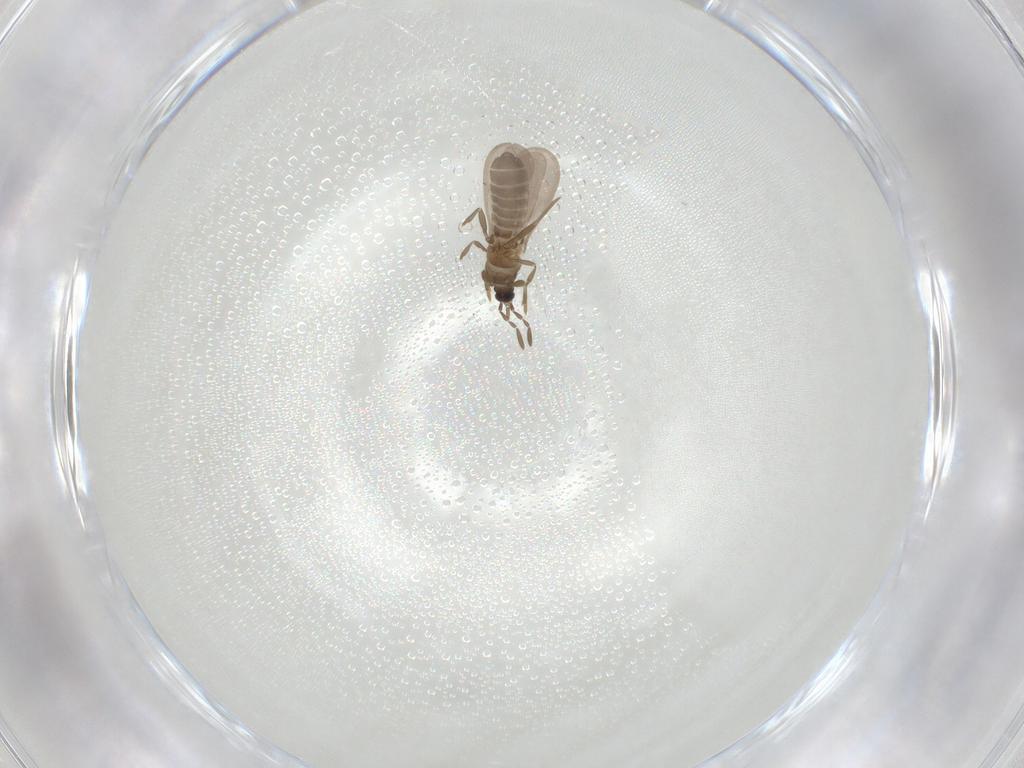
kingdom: Animalia
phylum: Arthropoda
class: Insecta
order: Hemiptera
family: Enicocephalidae
